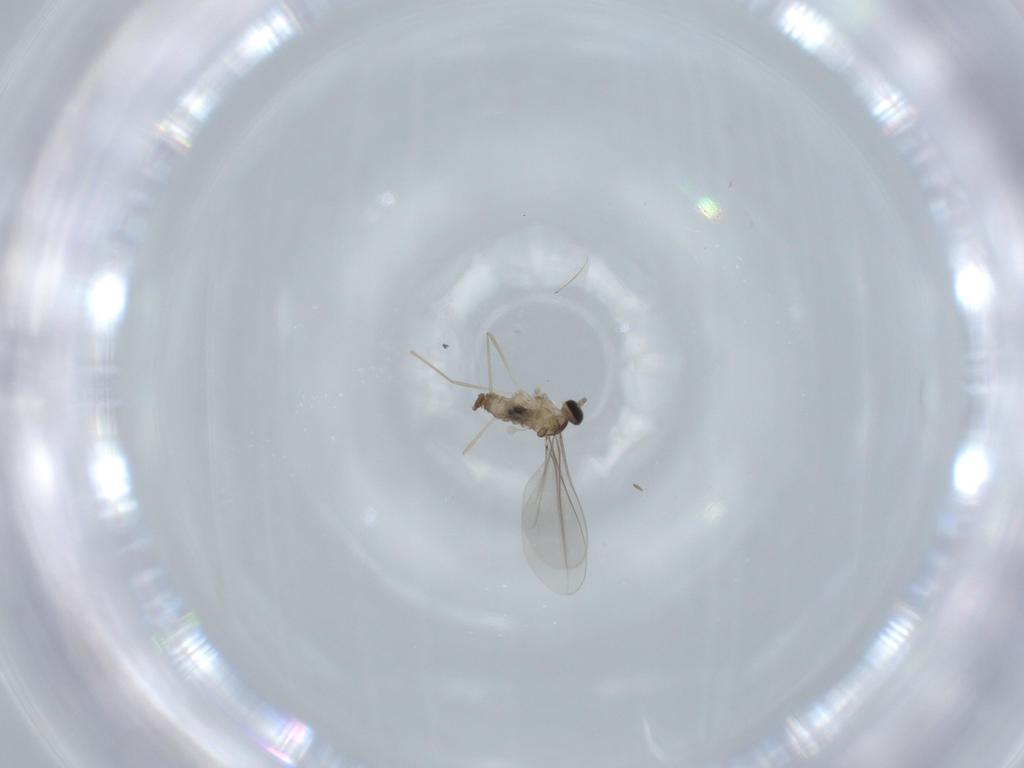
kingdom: Animalia
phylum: Arthropoda
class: Insecta
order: Diptera
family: Cecidomyiidae
